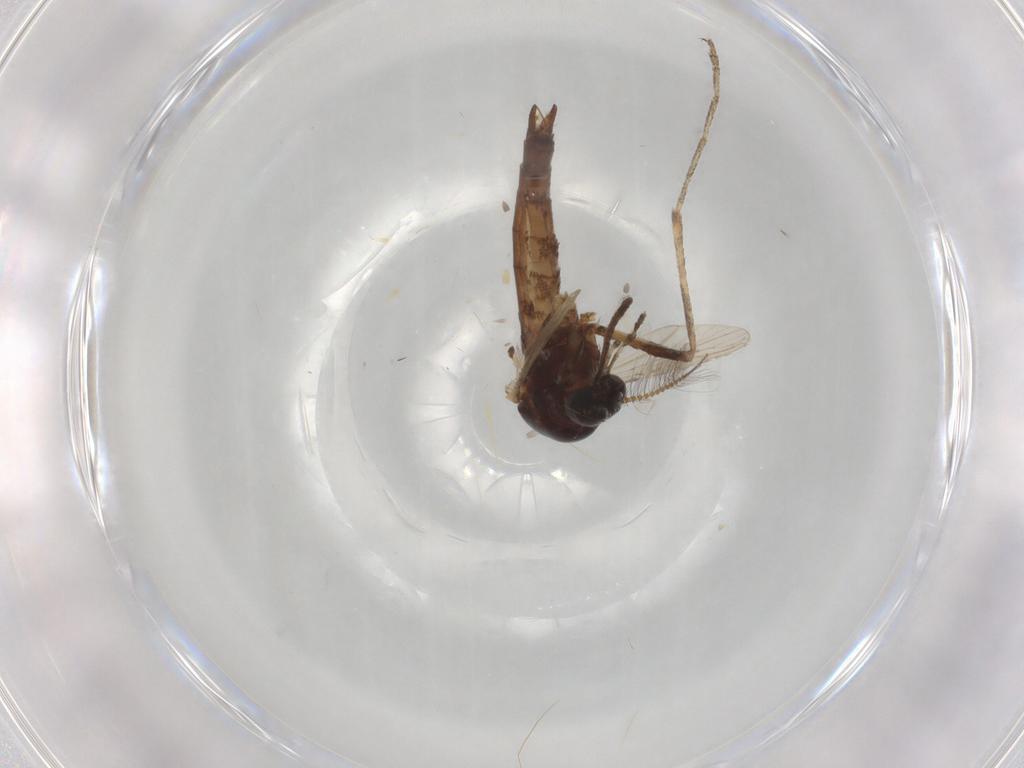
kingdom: Animalia
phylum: Arthropoda
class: Insecta
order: Diptera
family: Culicidae
